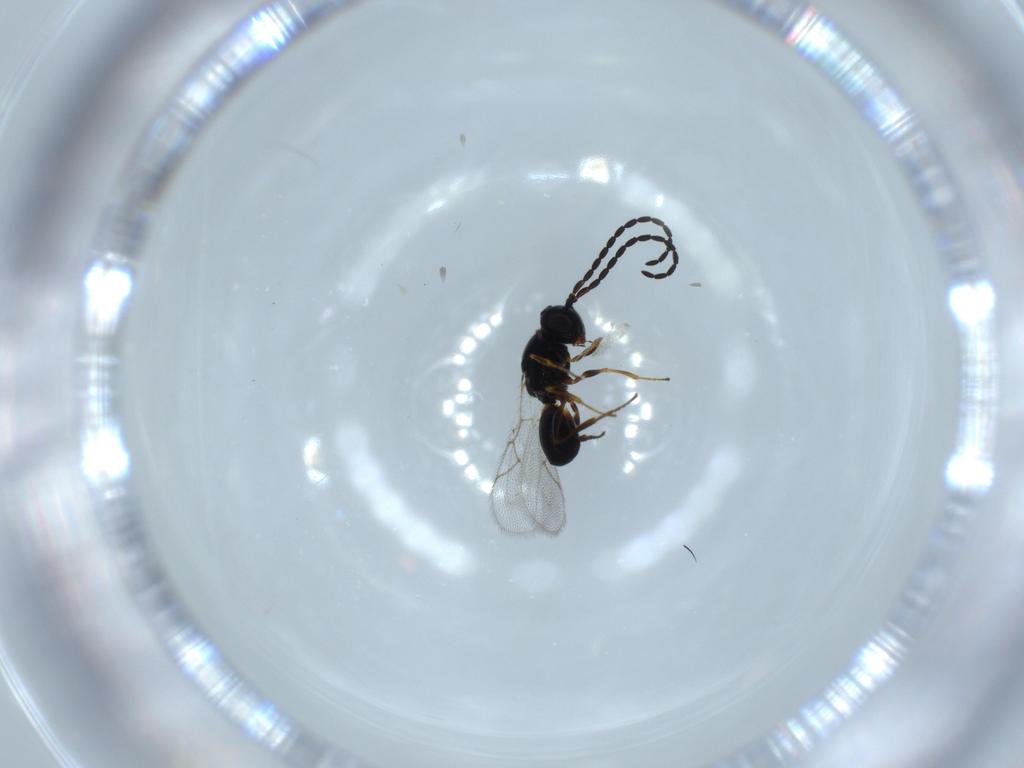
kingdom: Animalia
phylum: Arthropoda
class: Insecta
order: Hymenoptera
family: Figitidae
